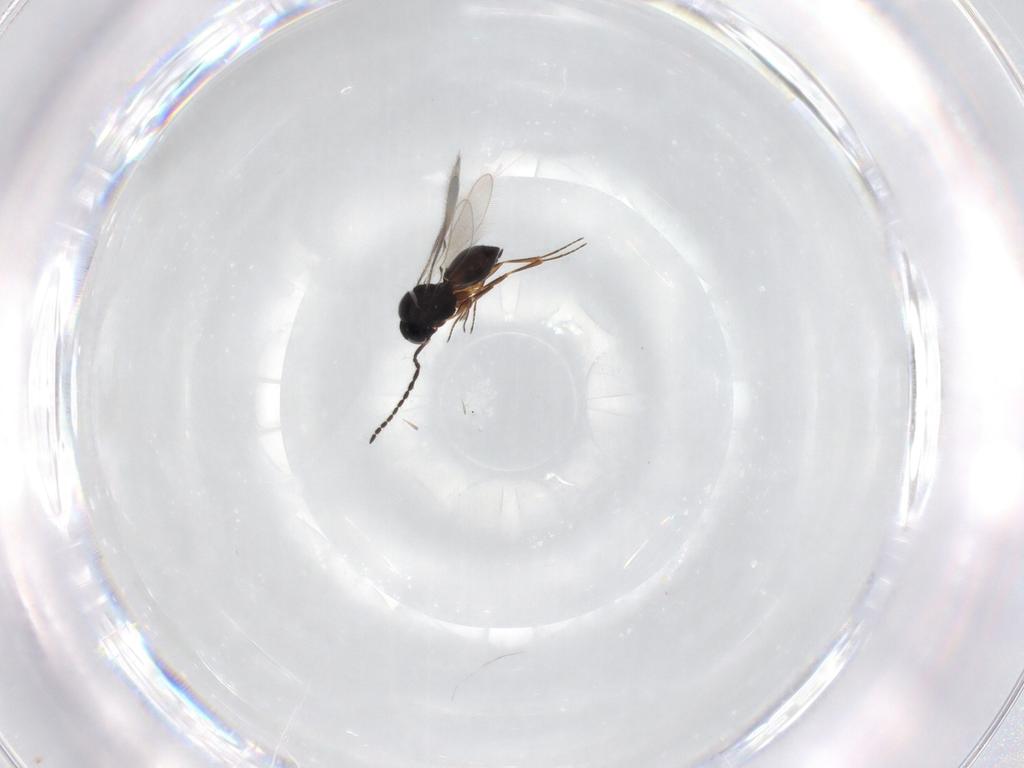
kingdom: Animalia
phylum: Arthropoda
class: Insecta
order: Hymenoptera
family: Scelionidae
